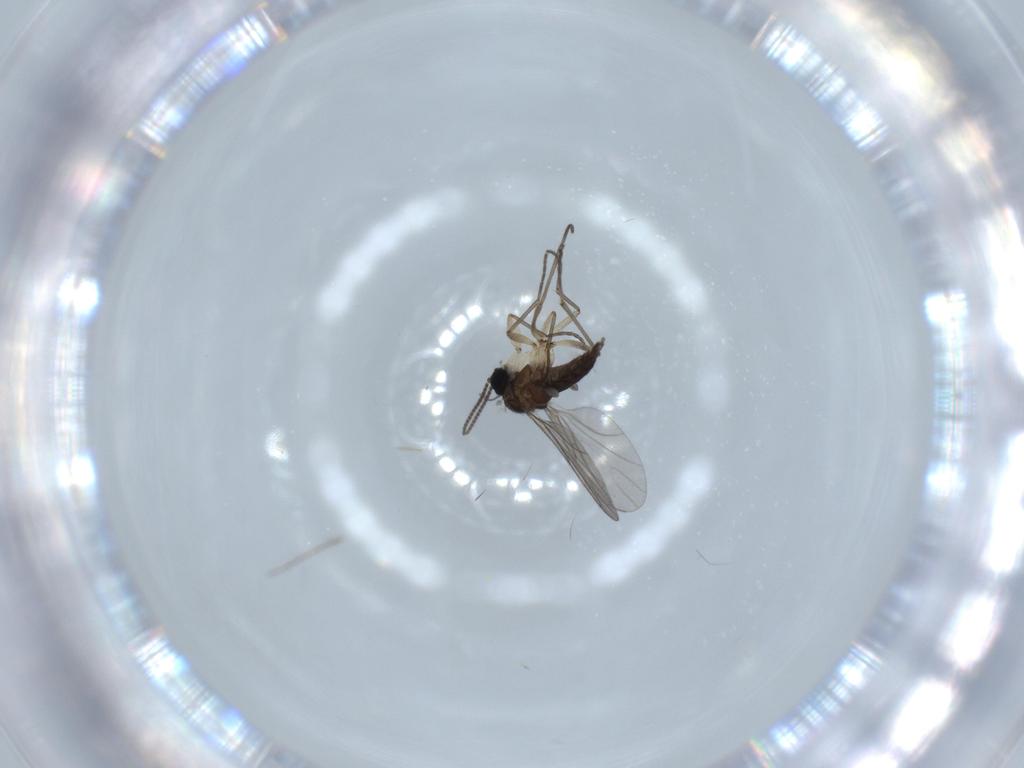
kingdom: Animalia
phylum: Arthropoda
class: Insecta
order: Diptera
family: Sciaridae
